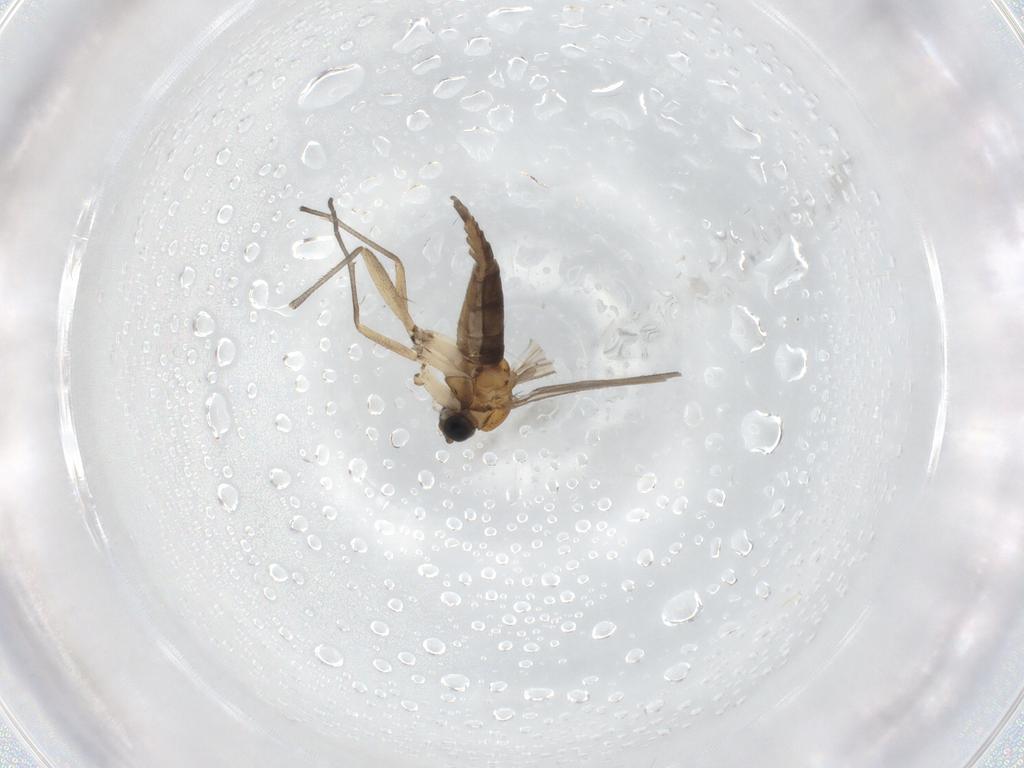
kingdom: Animalia
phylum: Arthropoda
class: Insecta
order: Diptera
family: Sciaridae
